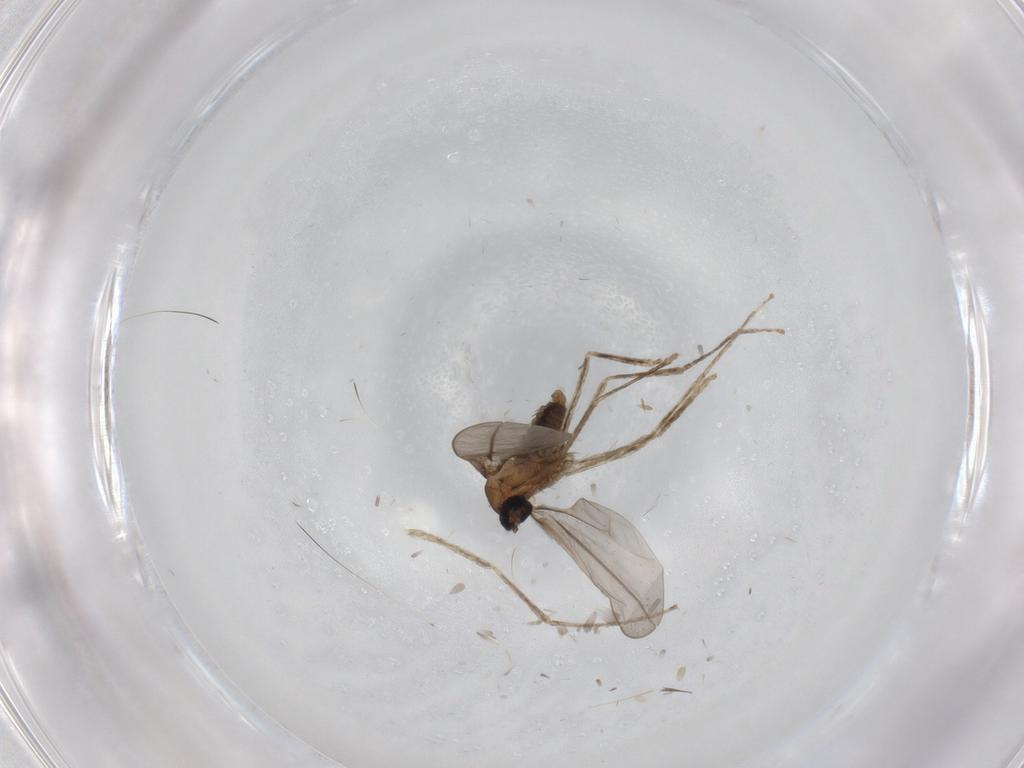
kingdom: Animalia
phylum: Arthropoda
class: Insecta
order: Diptera
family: Cecidomyiidae
